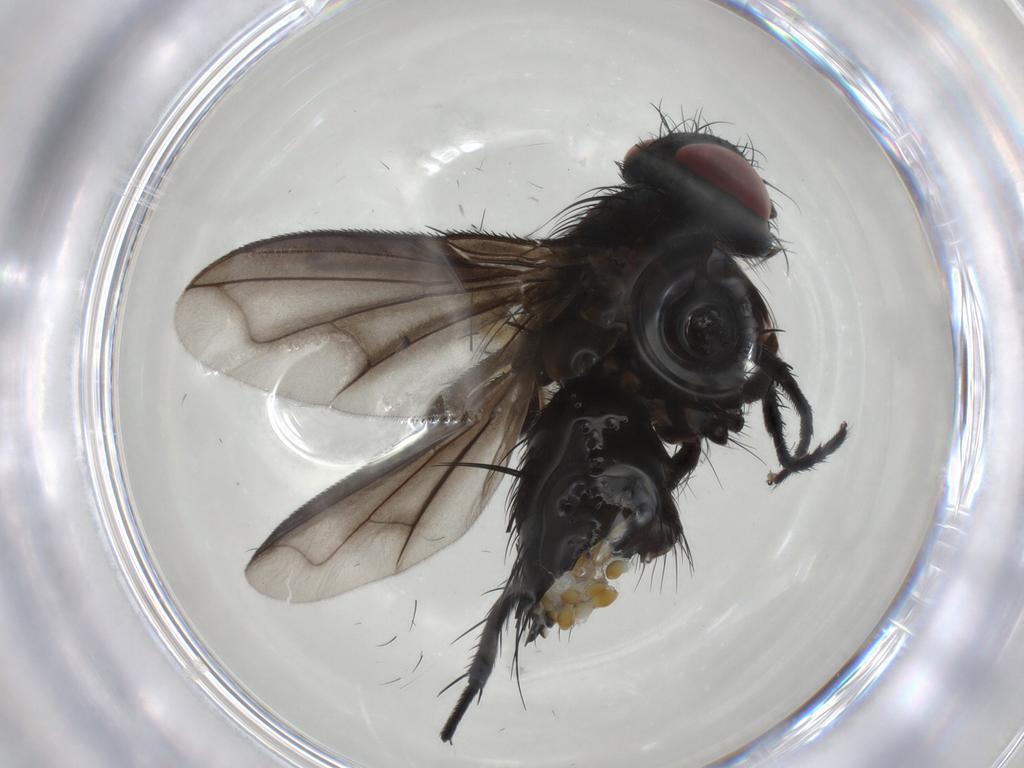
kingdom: Animalia
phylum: Arthropoda
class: Insecta
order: Diptera
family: Tachinidae
